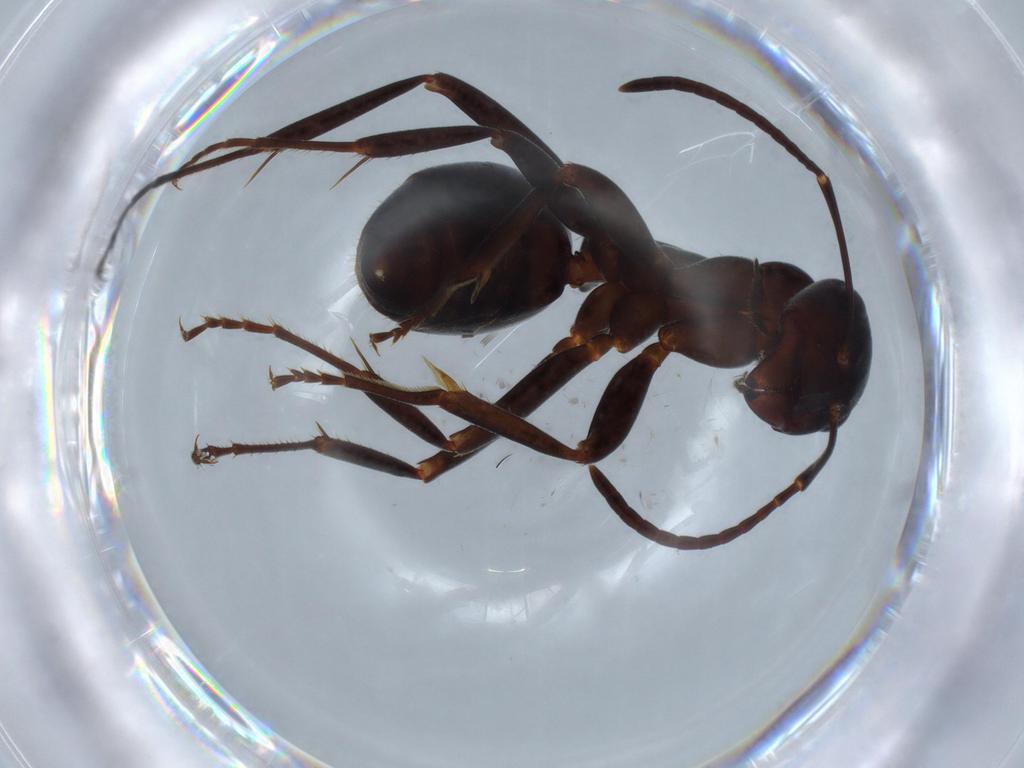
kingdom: Animalia
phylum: Arthropoda
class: Insecta
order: Hymenoptera
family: Formicidae
